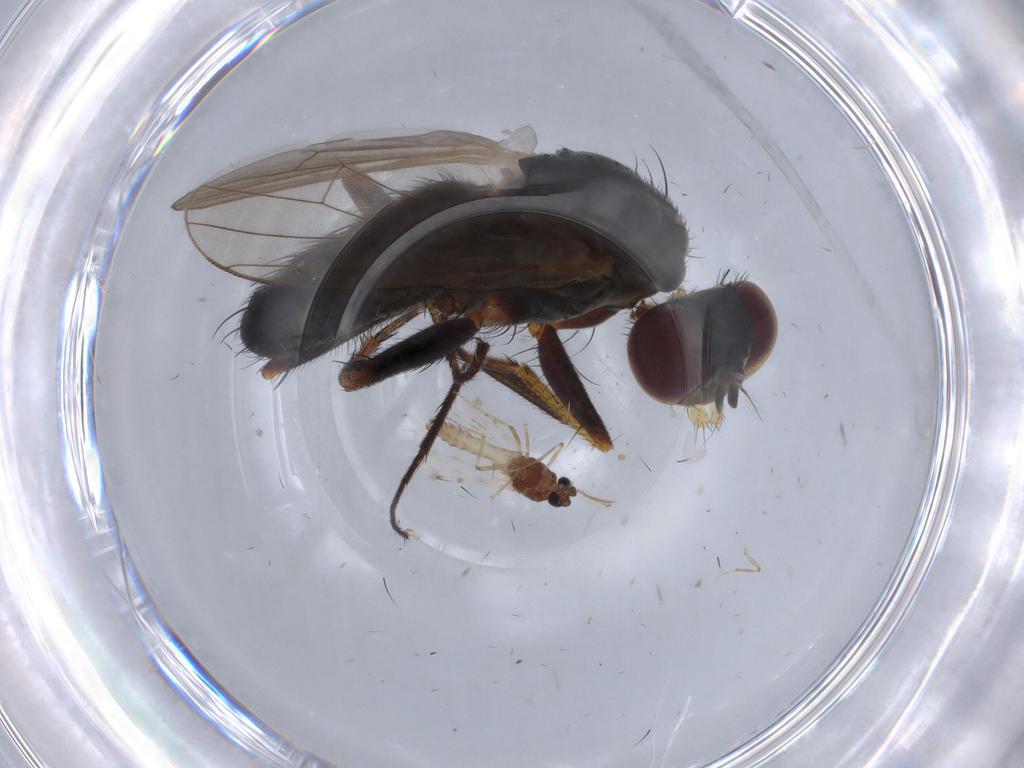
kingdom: Animalia
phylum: Arthropoda
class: Insecta
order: Diptera
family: Muscidae
